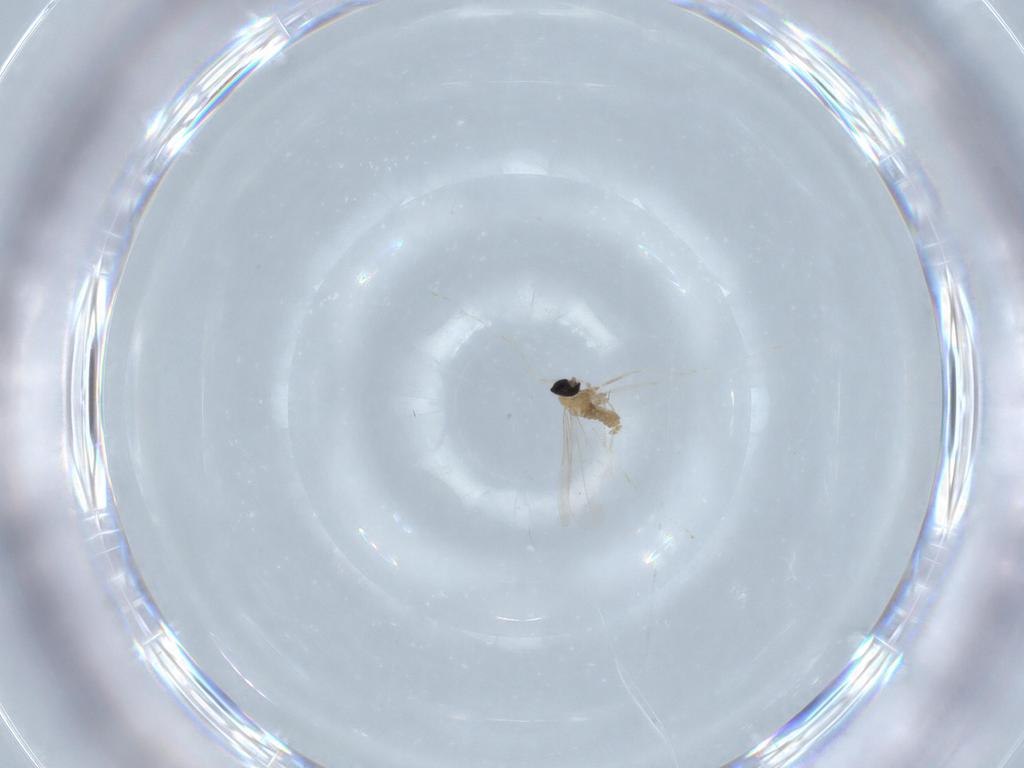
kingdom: Animalia
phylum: Arthropoda
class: Insecta
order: Diptera
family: Cecidomyiidae
